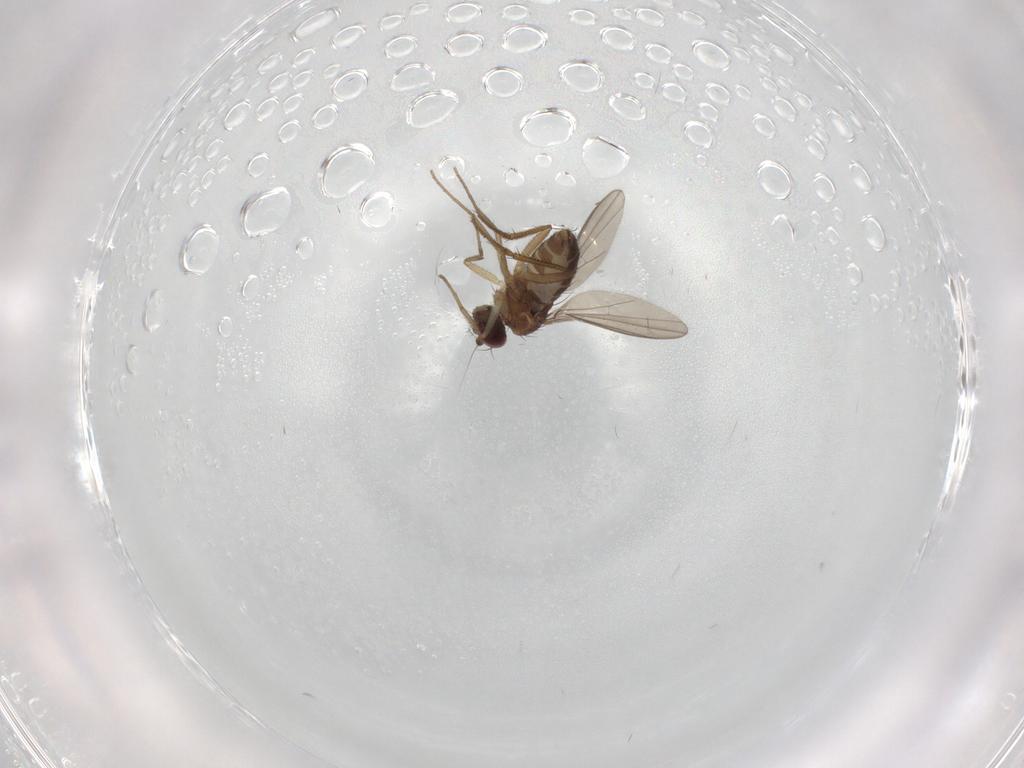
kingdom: Animalia
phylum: Arthropoda
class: Insecta
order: Diptera
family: Dolichopodidae
